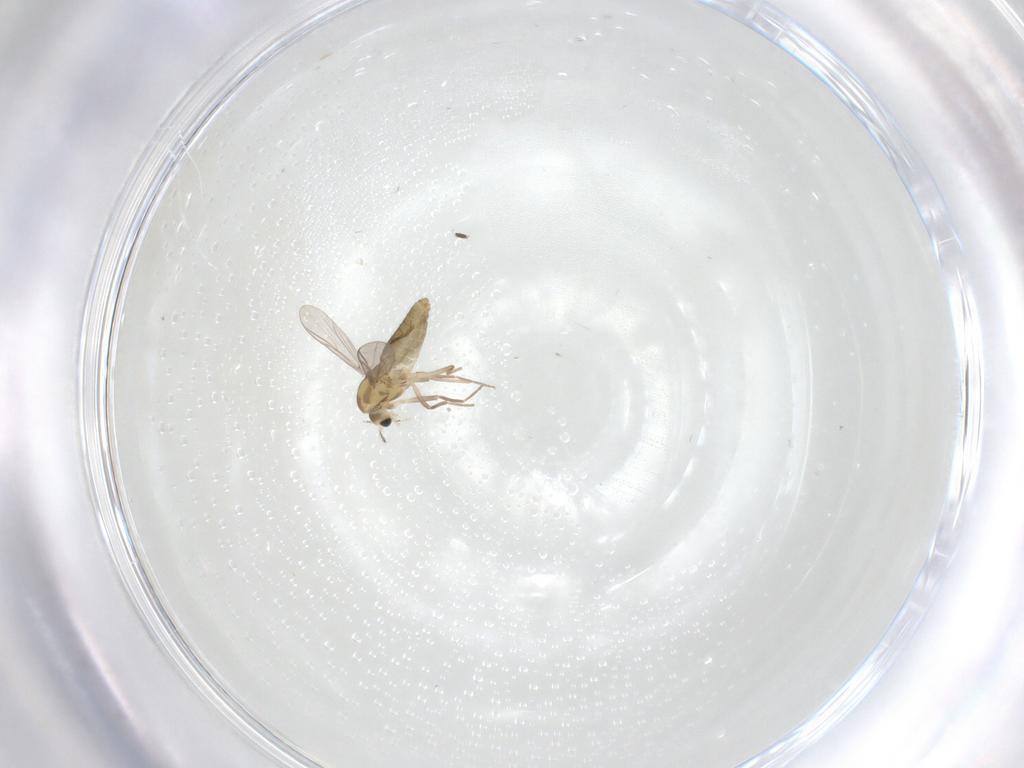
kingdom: Animalia
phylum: Arthropoda
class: Insecta
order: Diptera
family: Chironomidae
